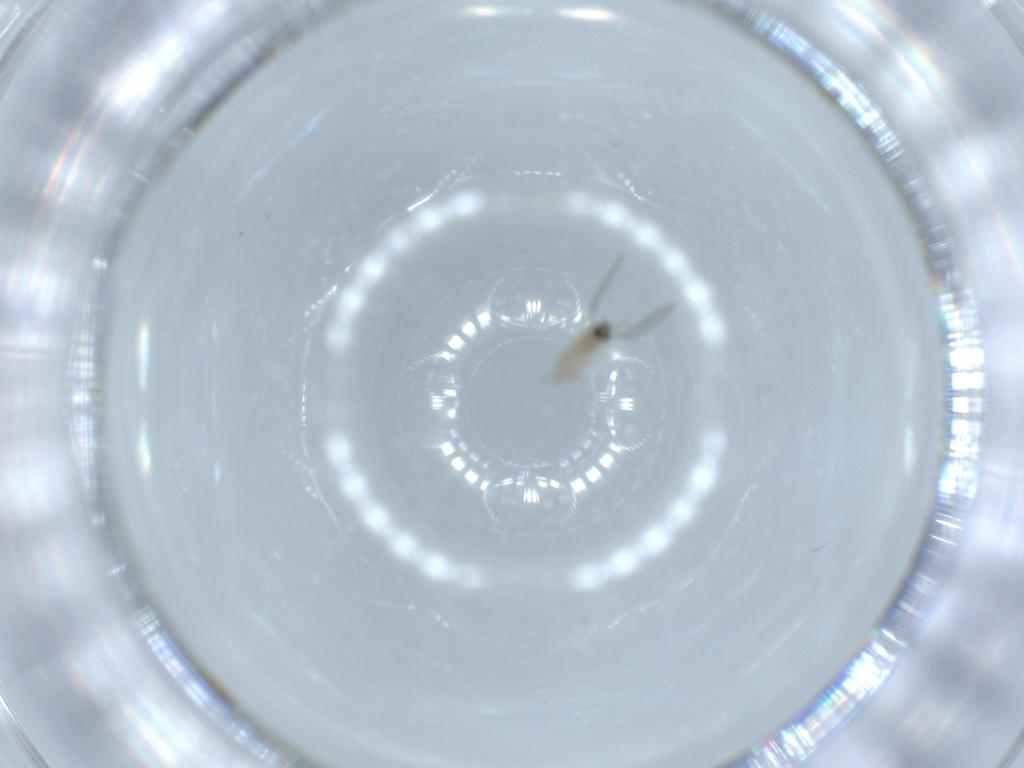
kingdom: Animalia
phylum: Arthropoda
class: Insecta
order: Diptera
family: Cecidomyiidae
